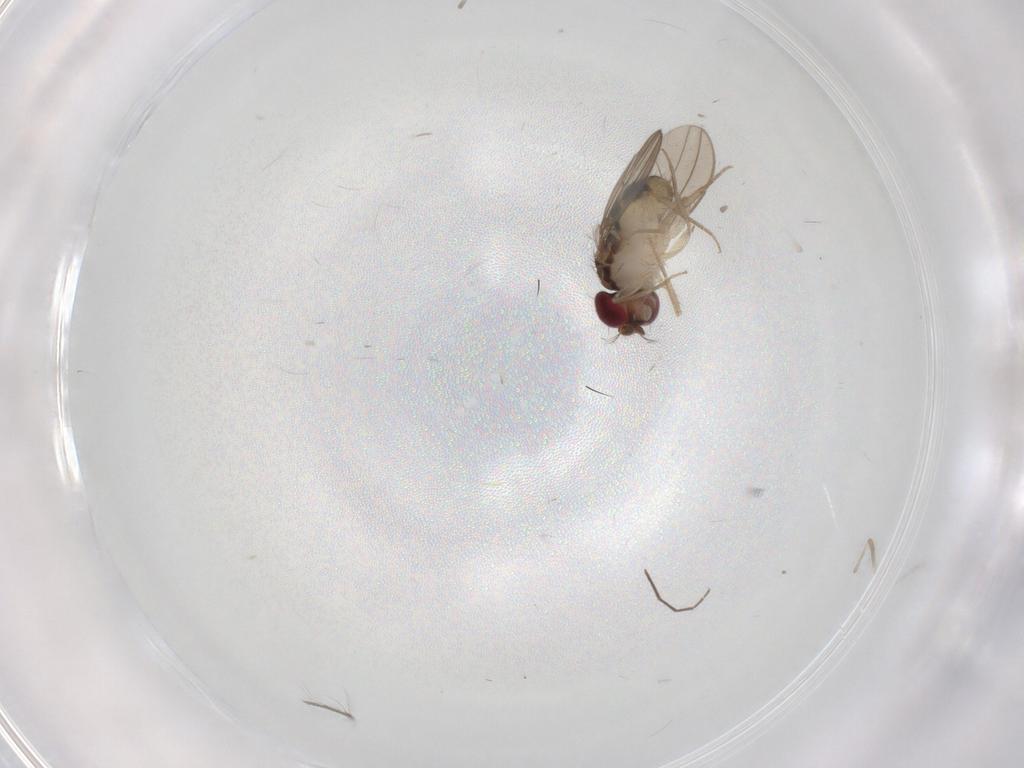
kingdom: Animalia
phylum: Arthropoda
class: Insecta
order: Diptera
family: Drosophilidae
